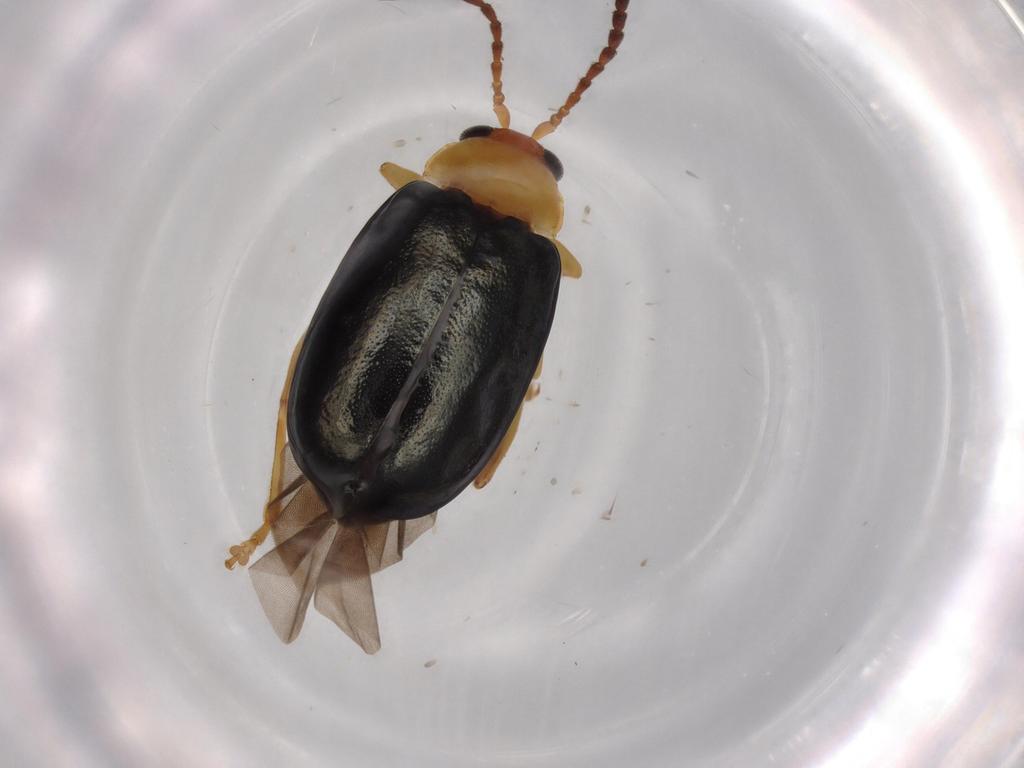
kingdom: Animalia
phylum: Arthropoda
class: Insecta
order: Coleoptera
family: Chrysomelidae
